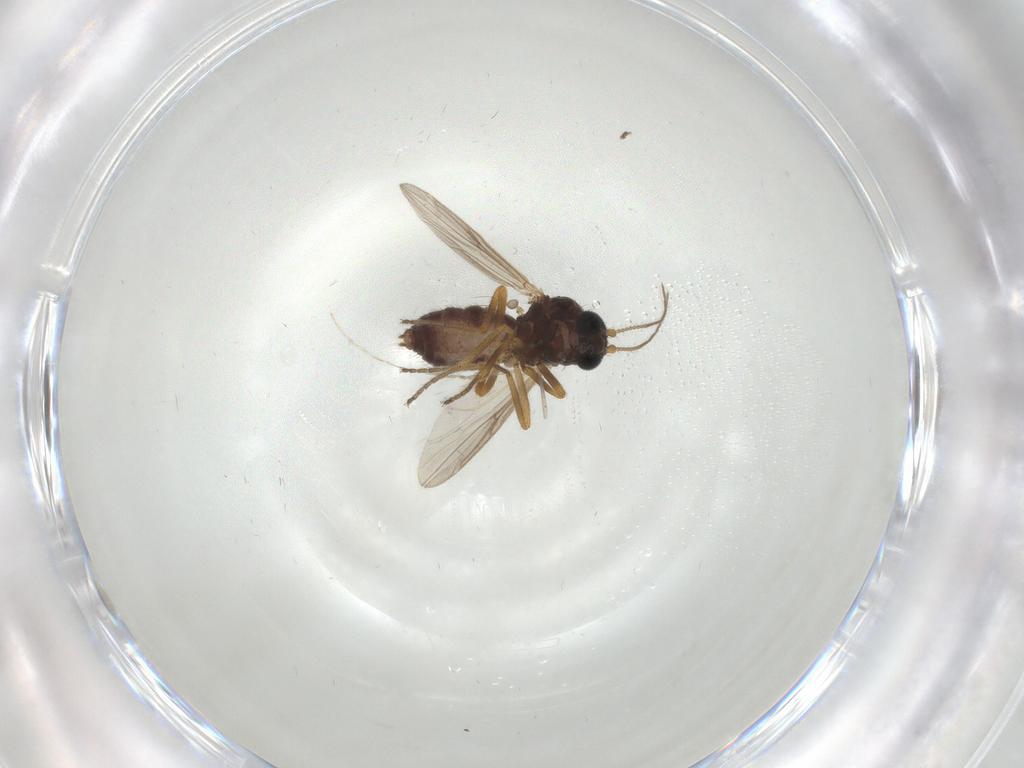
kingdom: Animalia
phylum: Arthropoda
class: Insecta
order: Diptera
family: Ceratopogonidae
